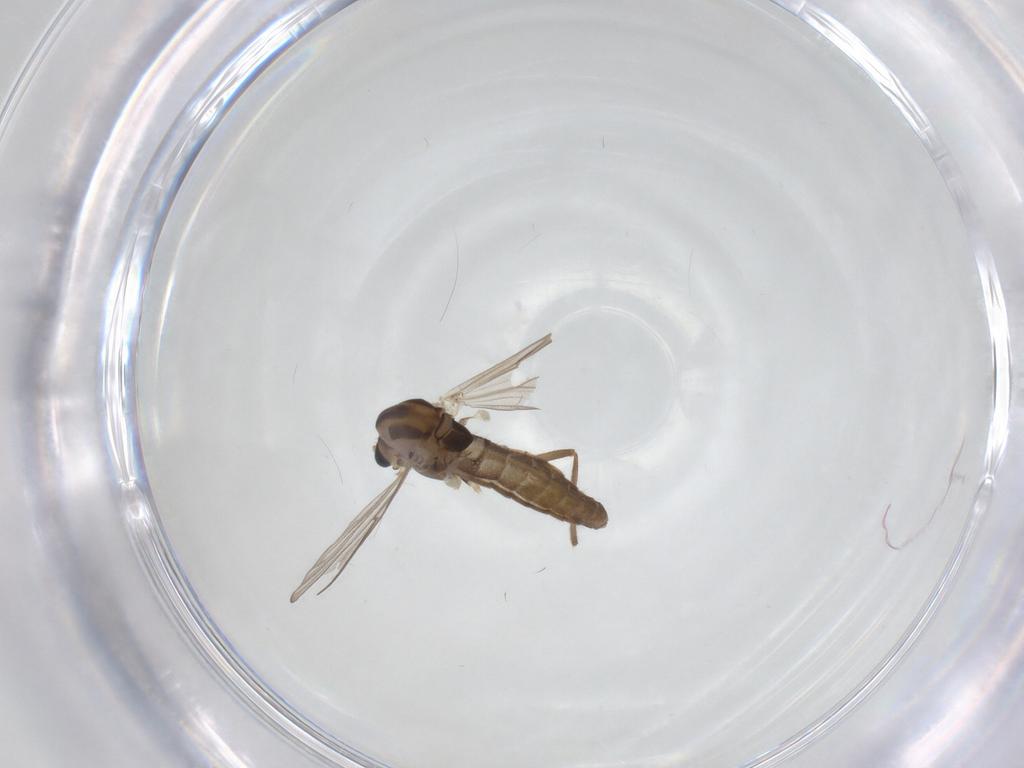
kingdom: Animalia
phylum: Arthropoda
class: Insecta
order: Diptera
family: Chironomidae
